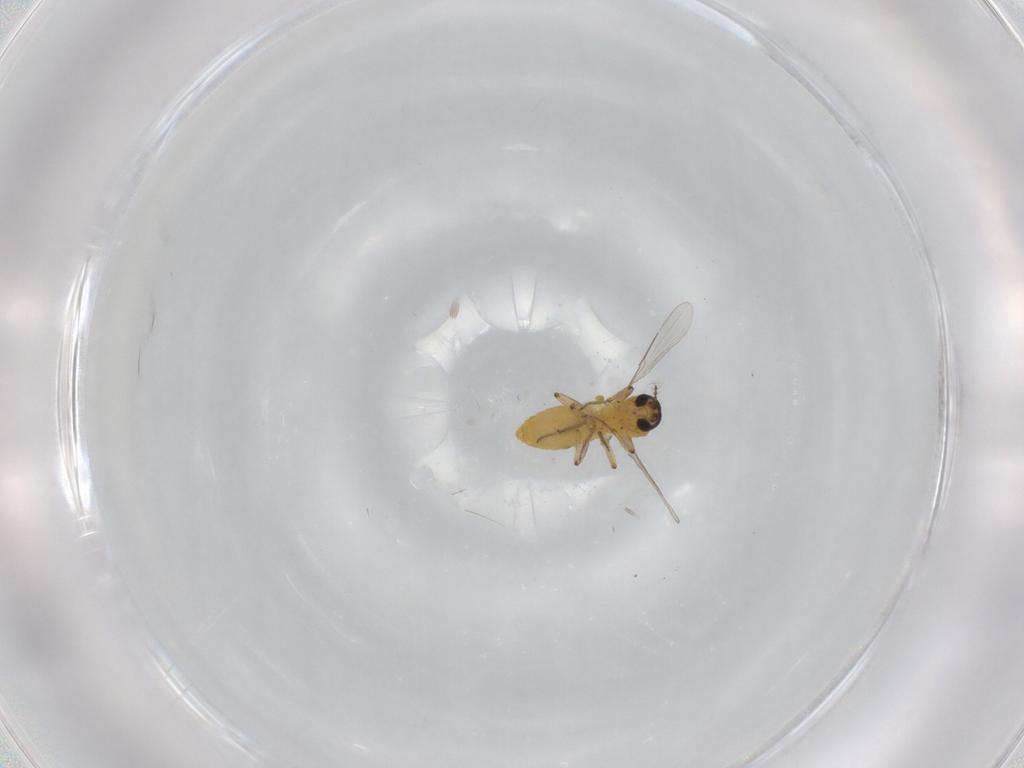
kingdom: Animalia
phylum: Arthropoda
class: Insecta
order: Diptera
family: Ceratopogonidae
